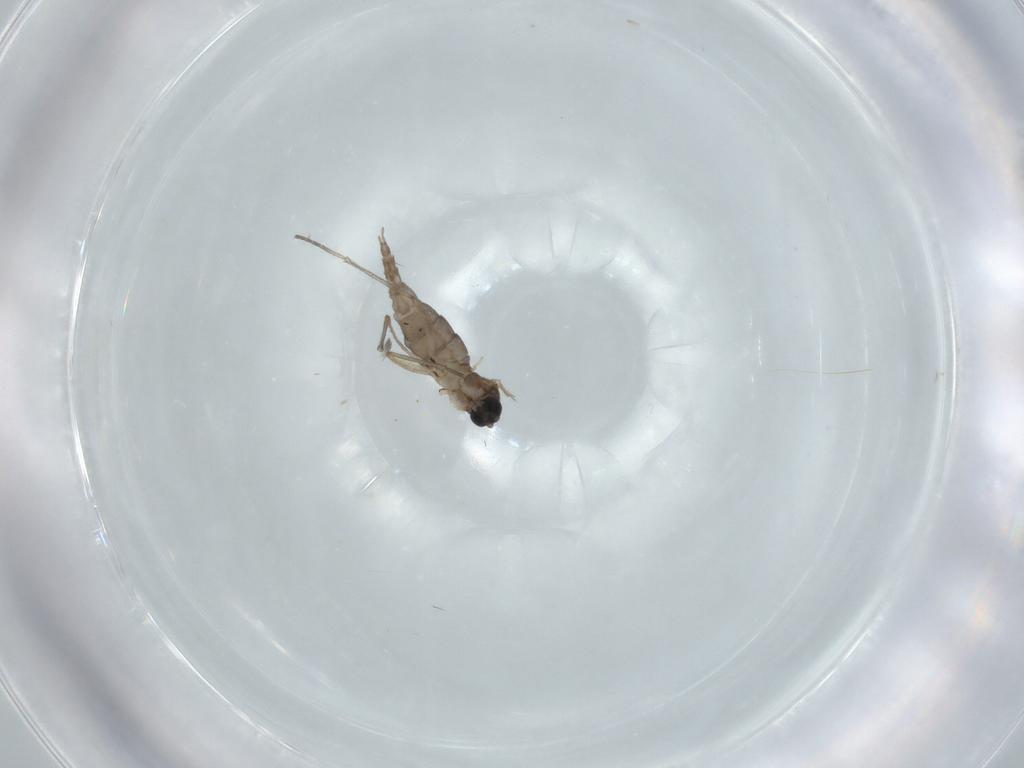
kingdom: Animalia
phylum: Arthropoda
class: Insecta
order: Diptera
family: Sciaridae
